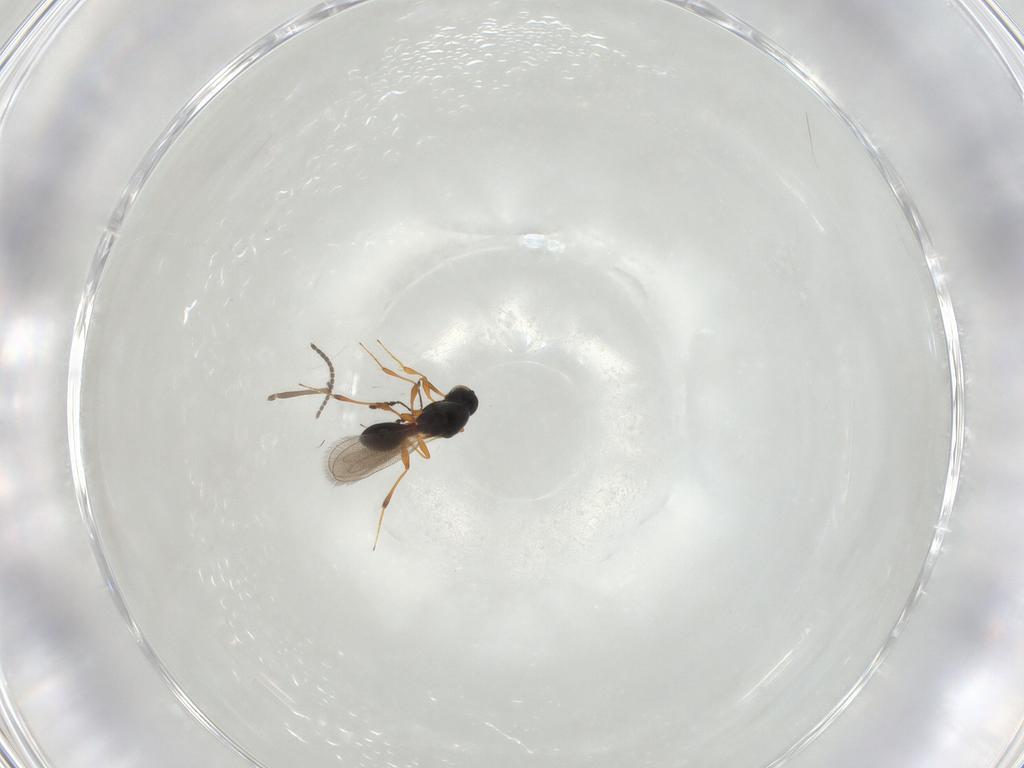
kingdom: Animalia
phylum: Arthropoda
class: Insecta
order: Hymenoptera
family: Platygastridae
